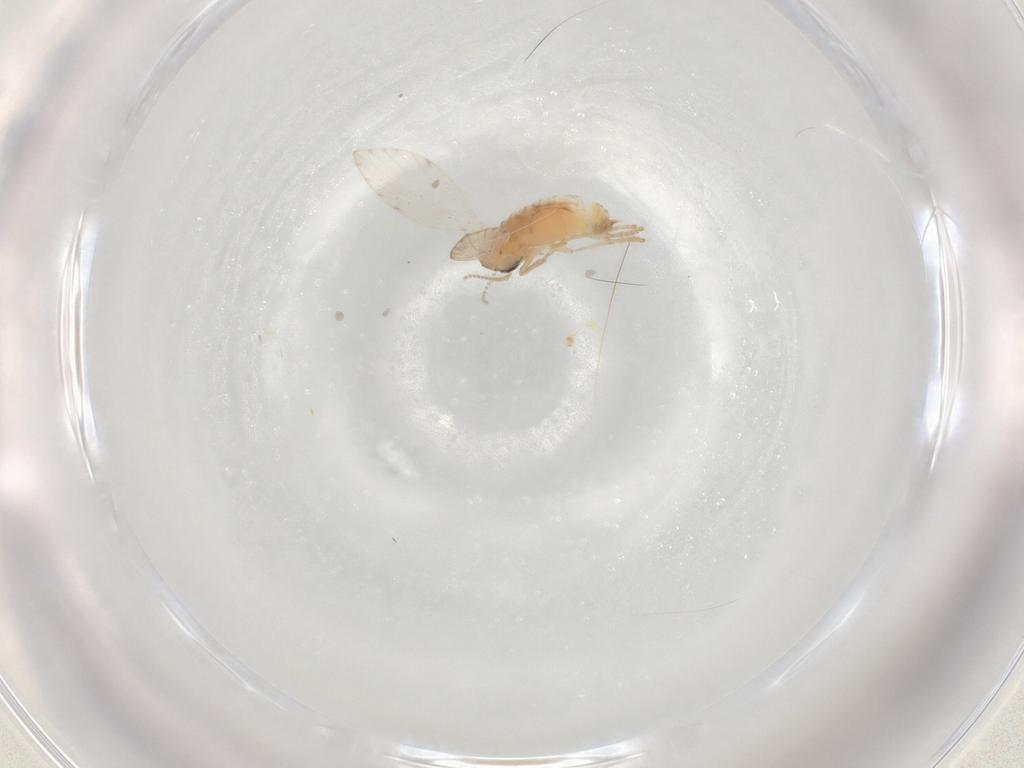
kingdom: Animalia
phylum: Arthropoda
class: Insecta
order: Diptera
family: Psychodidae
